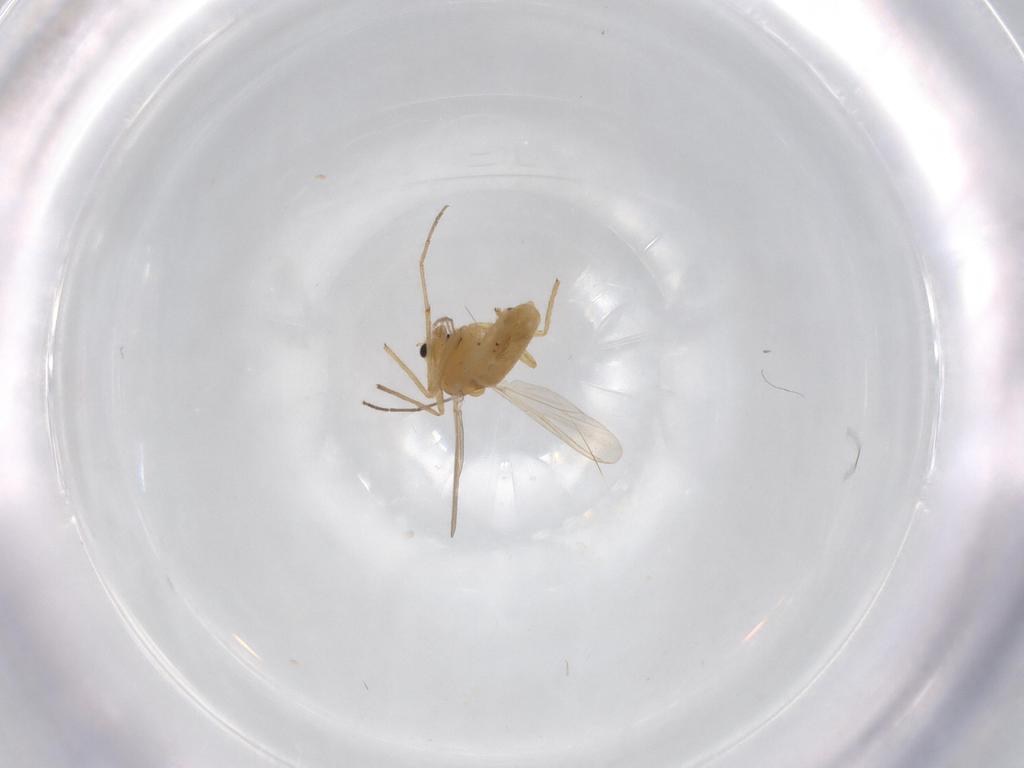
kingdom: Animalia
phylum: Arthropoda
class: Insecta
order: Diptera
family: Chironomidae
